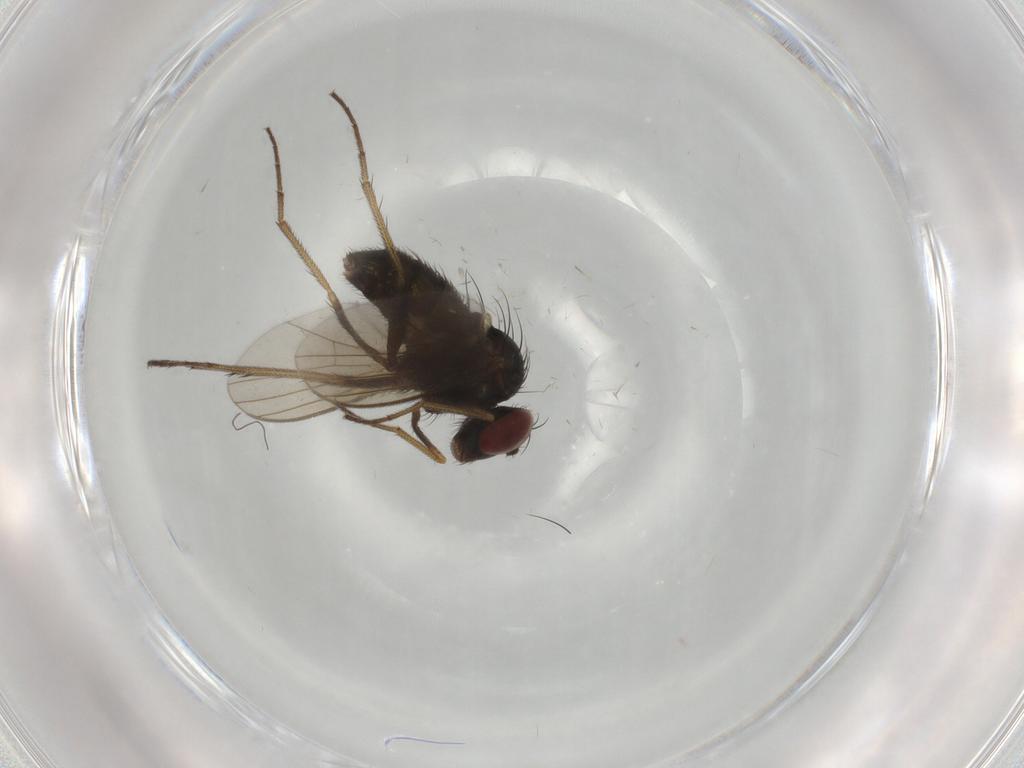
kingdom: Animalia
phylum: Arthropoda
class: Insecta
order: Diptera
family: Dolichopodidae
